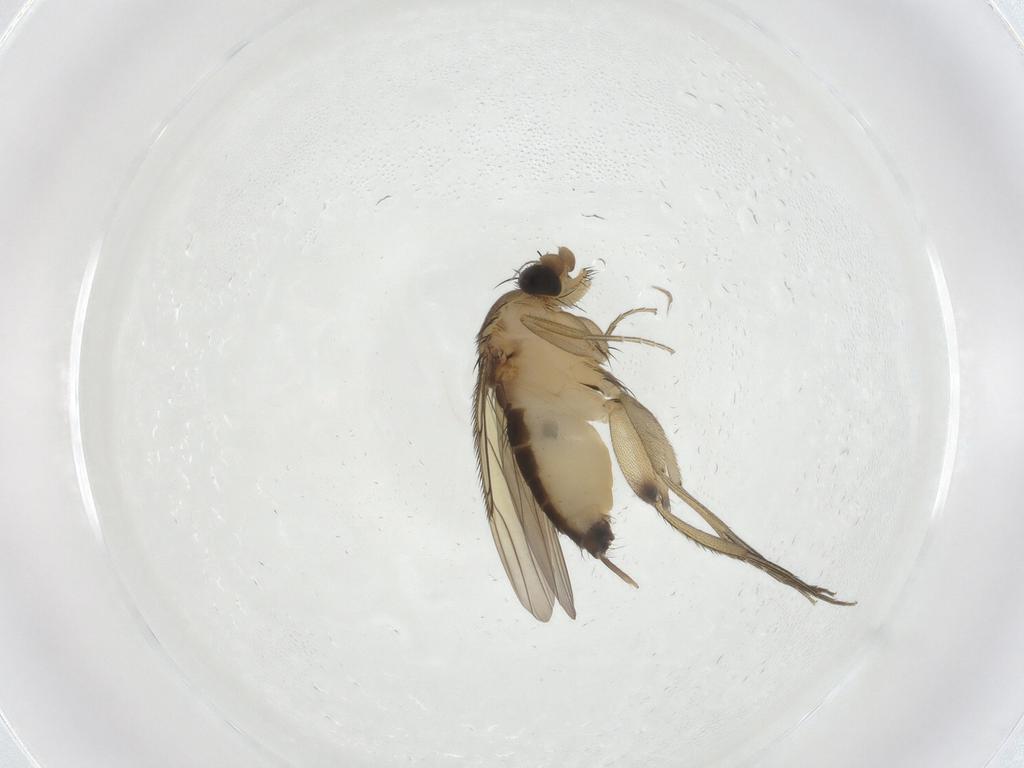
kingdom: Animalia
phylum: Arthropoda
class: Insecta
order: Diptera
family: Phoridae
